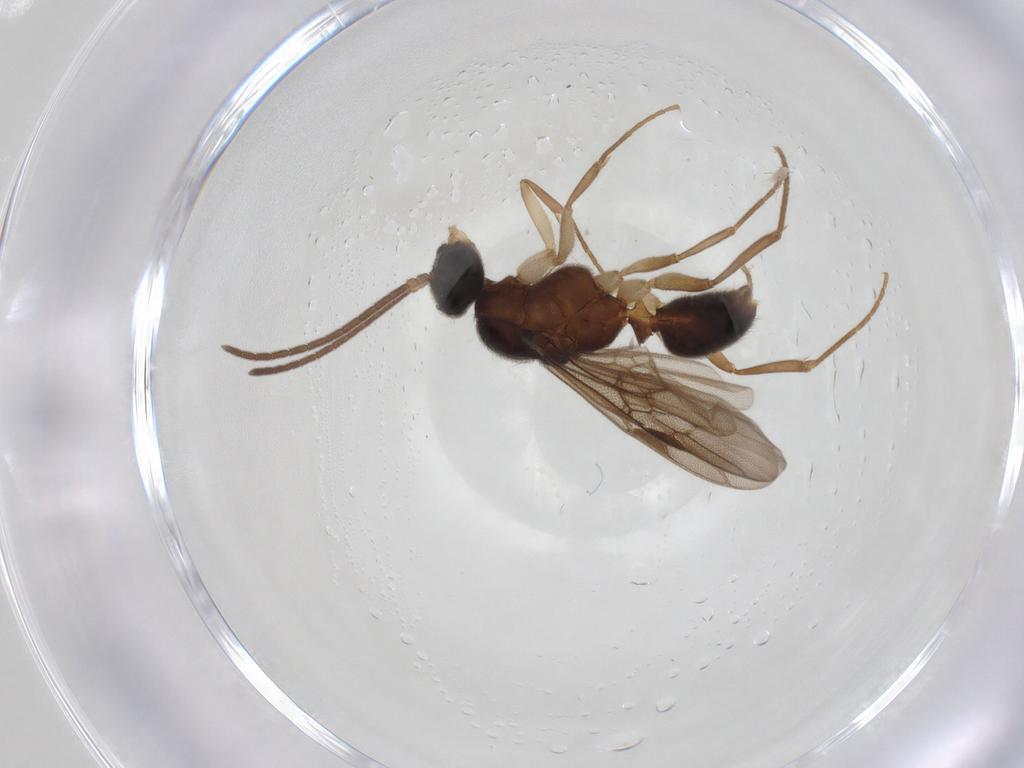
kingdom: Animalia
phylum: Arthropoda
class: Insecta
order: Hymenoptera
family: Formicidae
